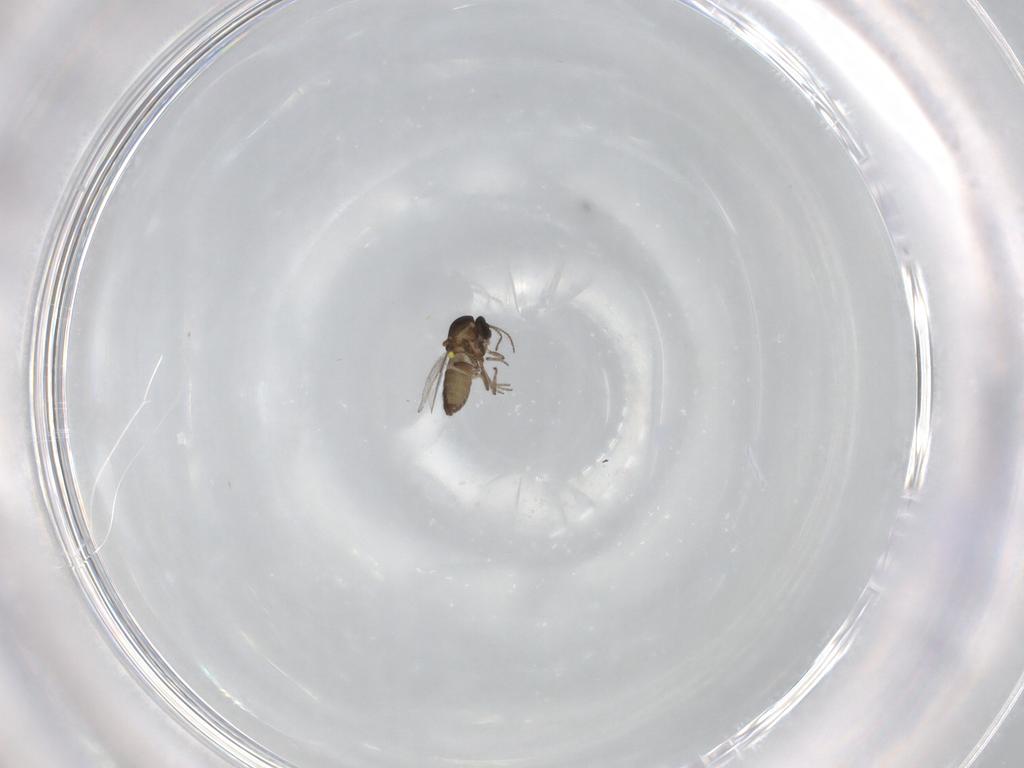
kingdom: Animalia
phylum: Arthropoda
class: Insecta
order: Diptera
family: Ceratopogonidae
